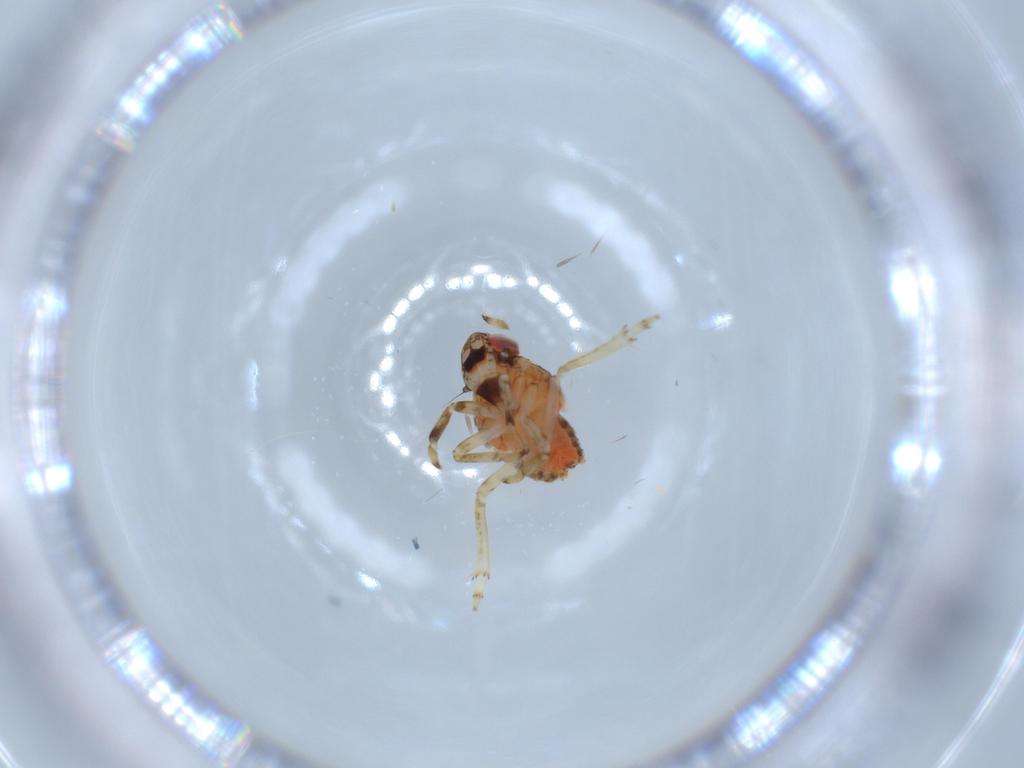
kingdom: Animalia
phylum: Arthropoda
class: Insecta
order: Hemiptera
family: Issidae
